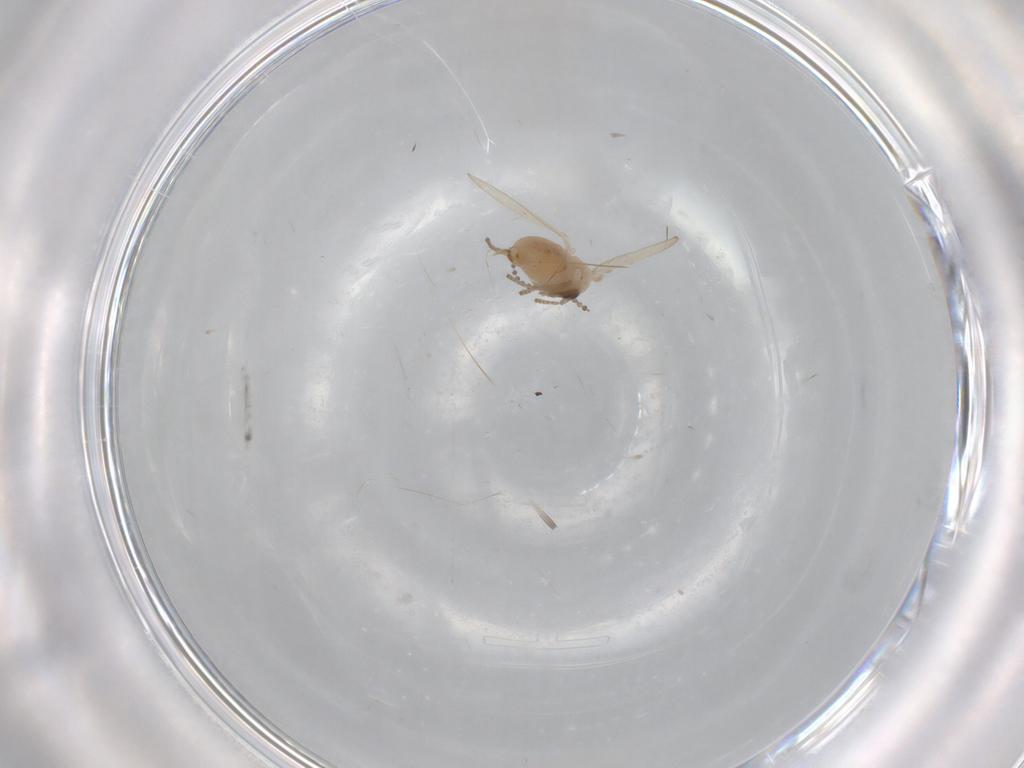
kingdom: Animalia
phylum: Arthropoda
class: Insecta
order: Diptera
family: Psychodidae
